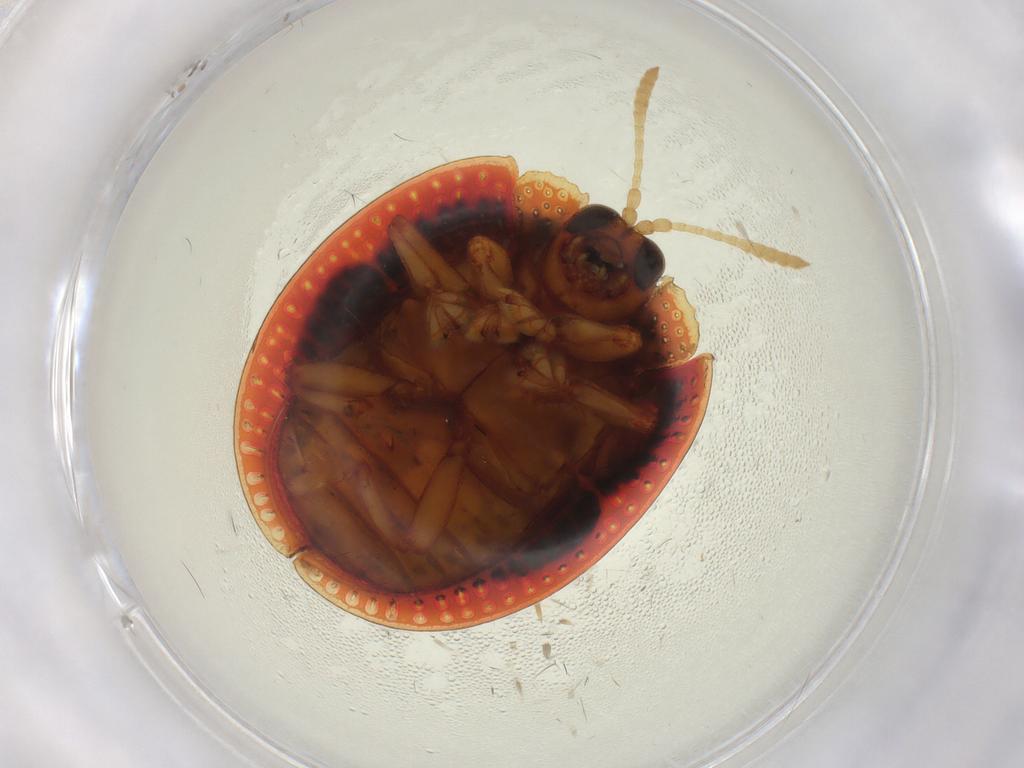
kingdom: Animalia
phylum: Arthropoda
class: Insecta
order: Coleoptera
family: Chrysomelidae
